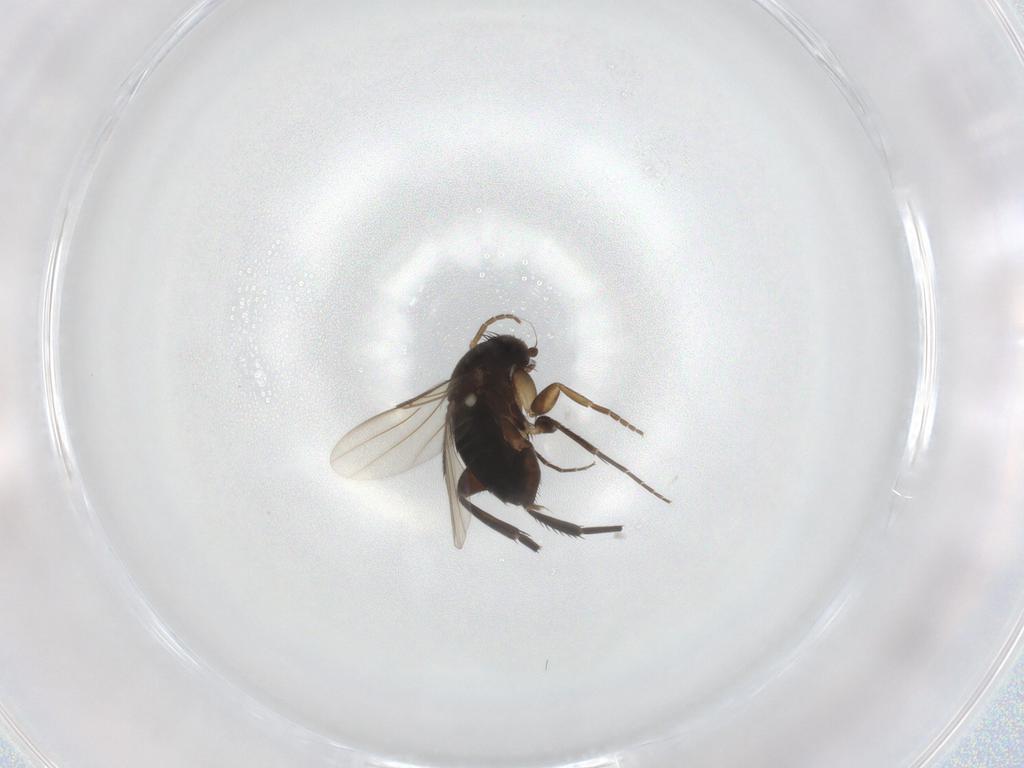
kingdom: Animalia
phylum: Arthropoda
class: Insecta
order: Diptera
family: Phoridae
